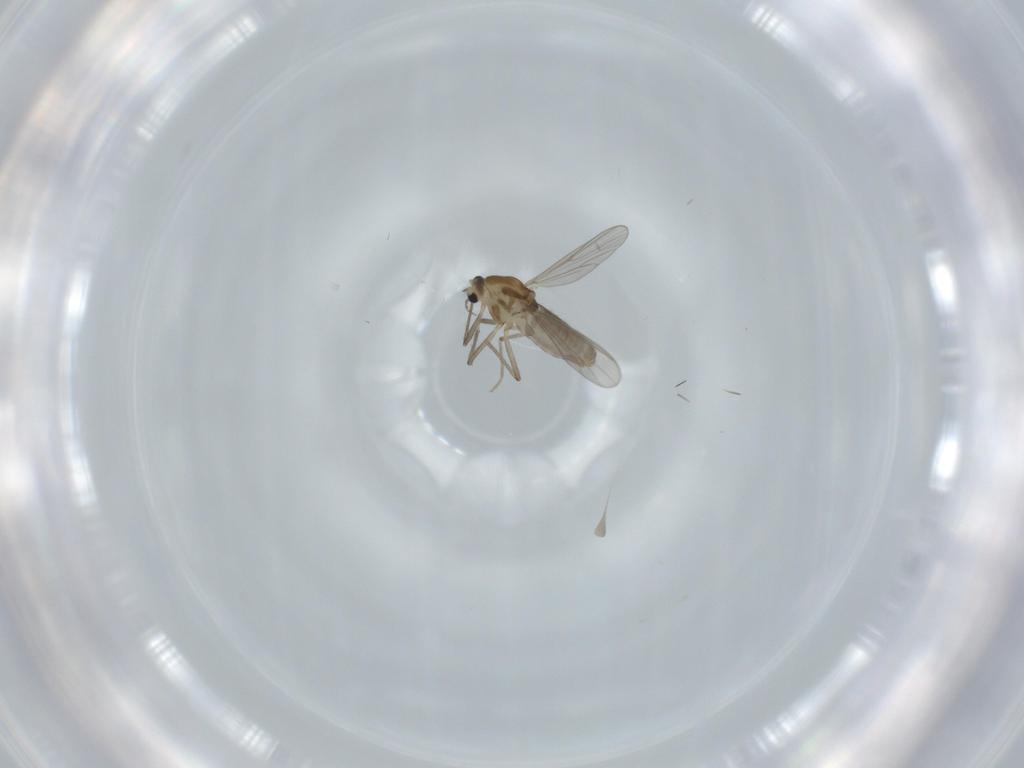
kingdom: Animalia
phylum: Arthropoda
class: Insecta
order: Diptera
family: Chironomidae
